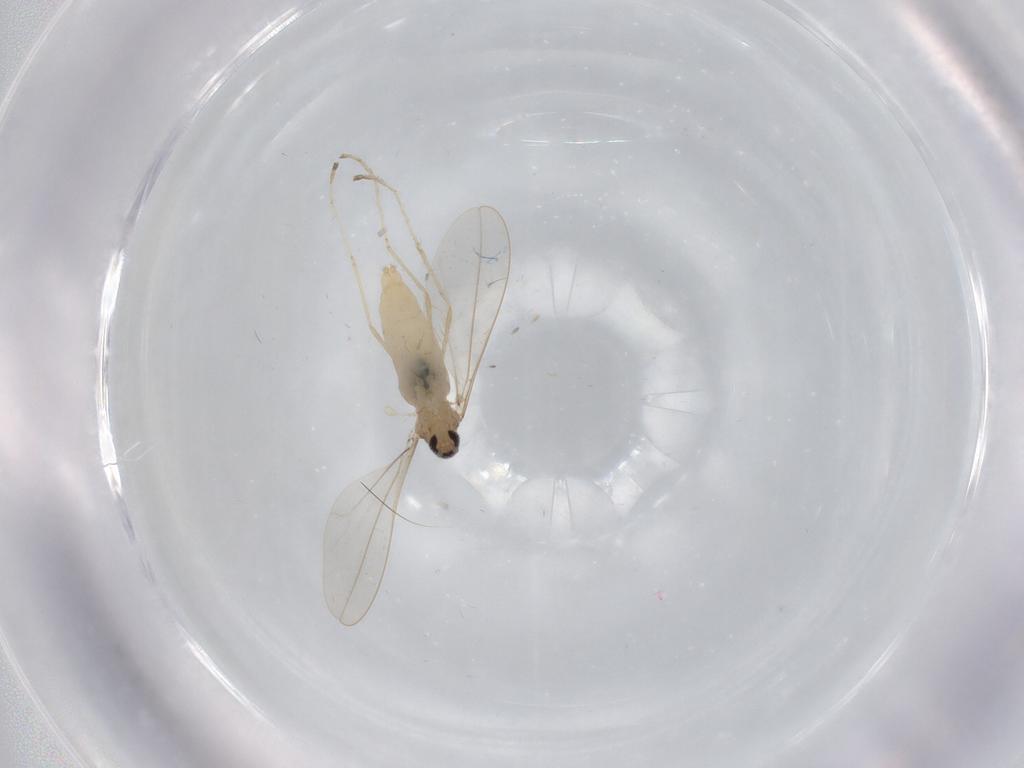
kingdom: Animalia
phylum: Arthropoda
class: Insecta
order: Diptera
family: Cecidomyiidae
